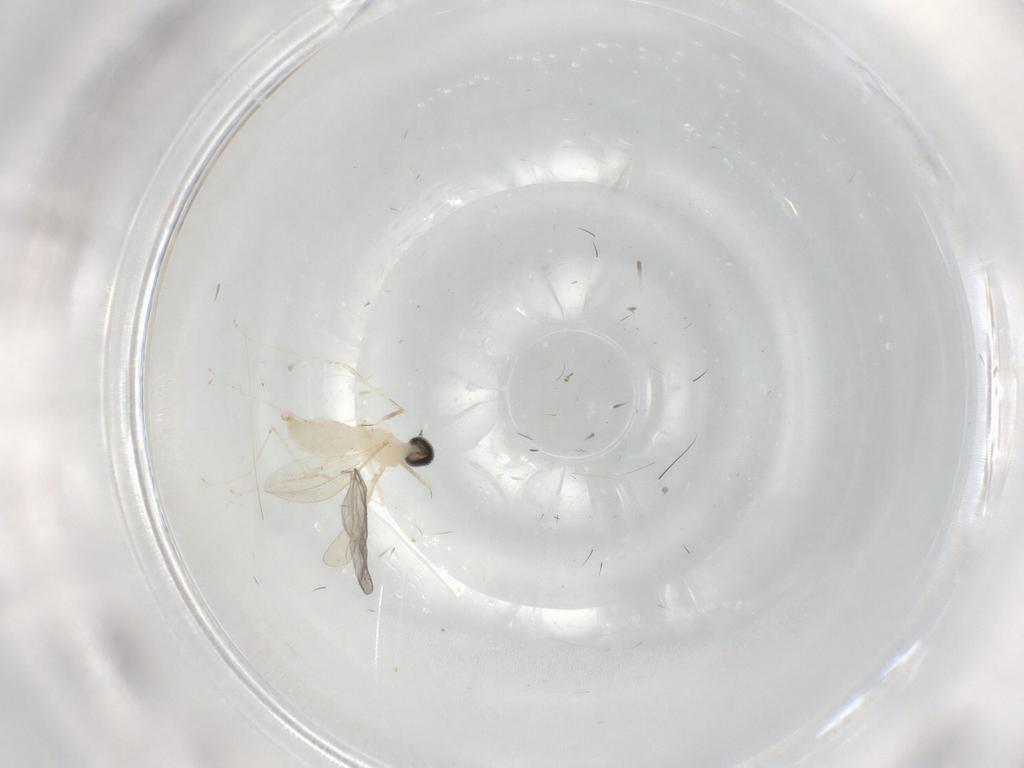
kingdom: Animalia
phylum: Arthropoda
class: Insecta
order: Diptera
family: Cecidomyiidae
